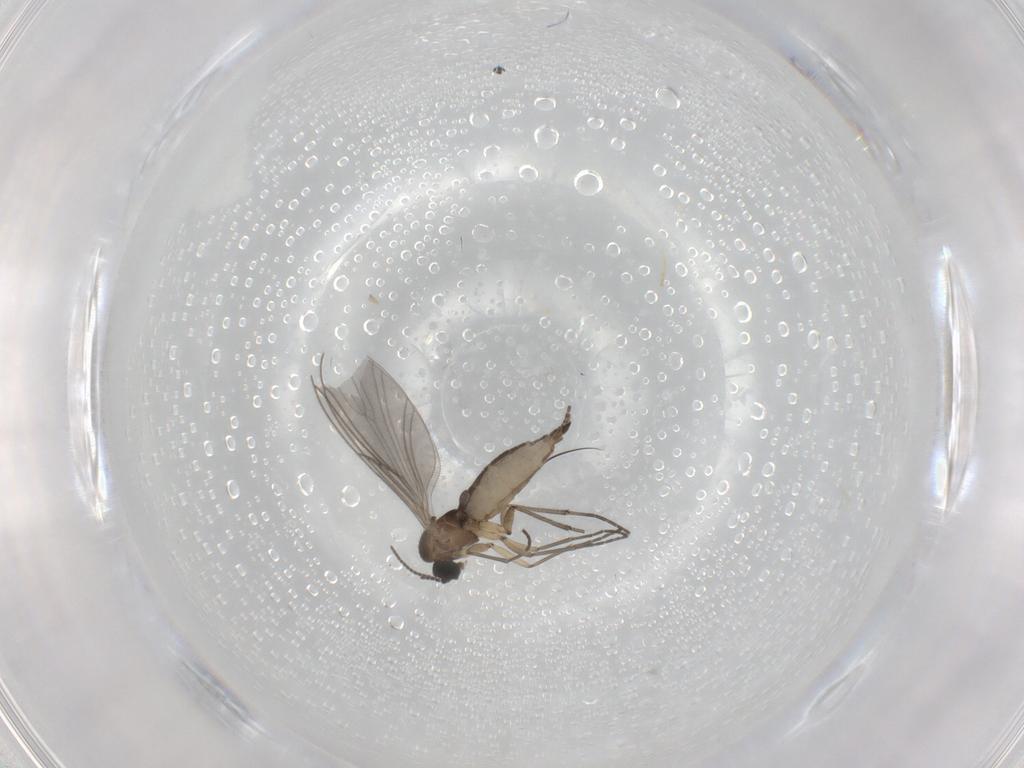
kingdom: Animalia
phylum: Arthropoda
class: Insecta
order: Diptera
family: Sciaridae
